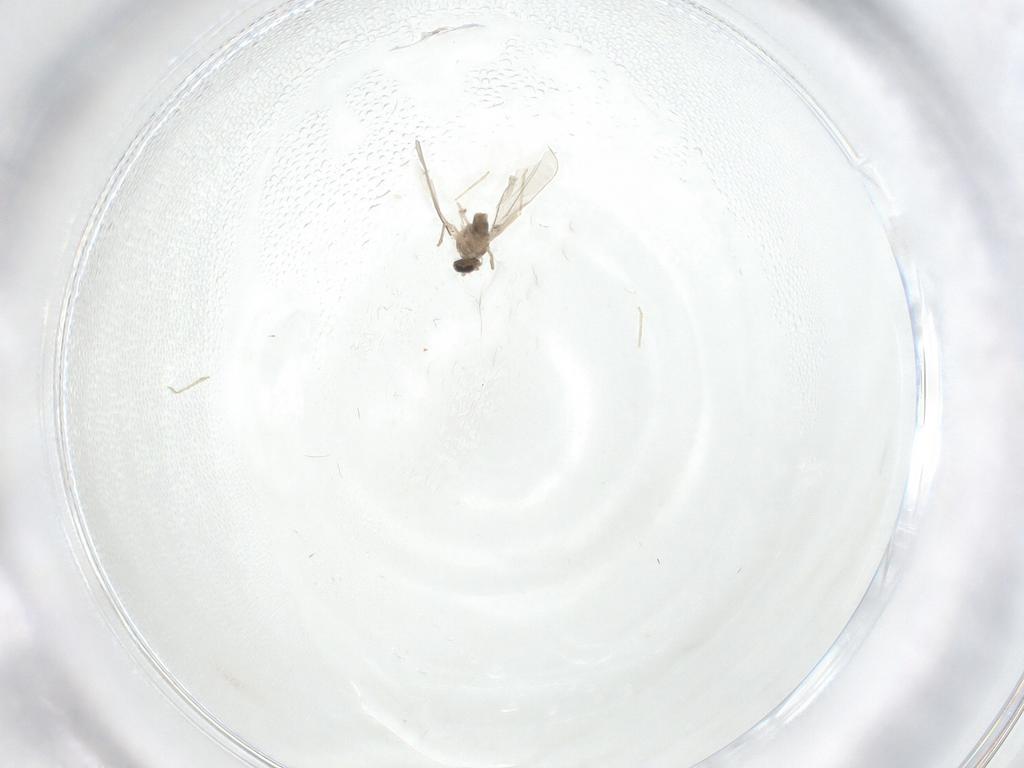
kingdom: Animalia
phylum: Arthropoda
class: Insecta
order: Diptera
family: Cecidomyiidae
